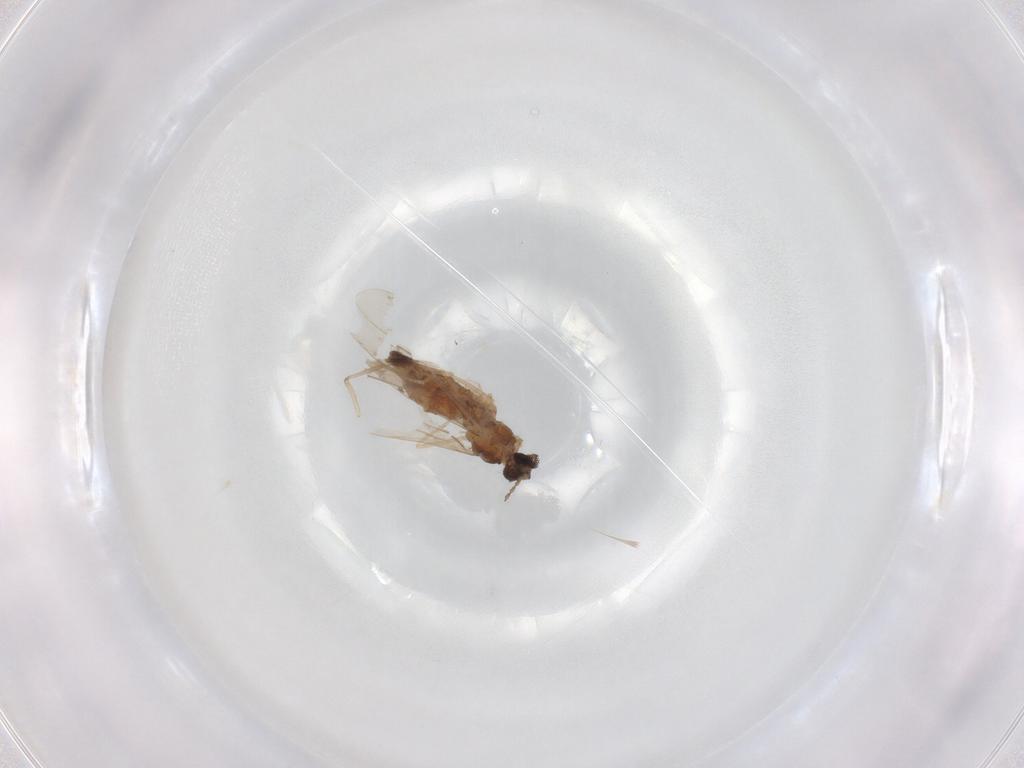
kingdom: Animalia
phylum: Arthropoda
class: Insecta
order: Diptera
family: Cecidomyiidae
